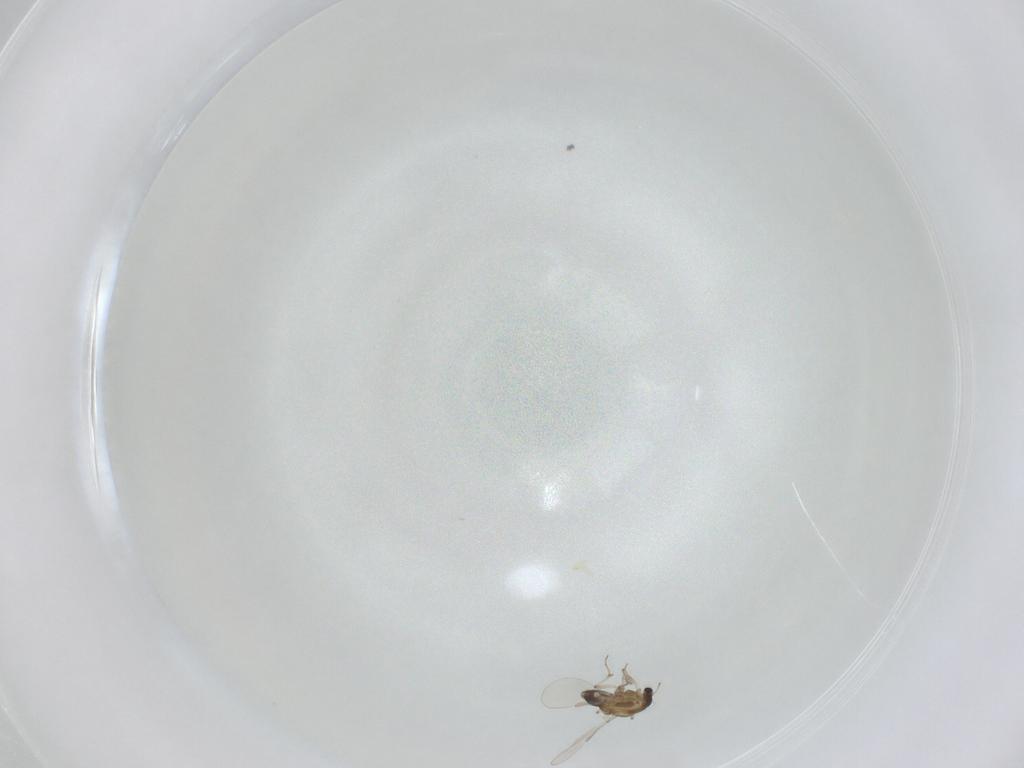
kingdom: Animalia
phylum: Arthropoda
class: Insecta
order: Diptera
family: Chironomidae
